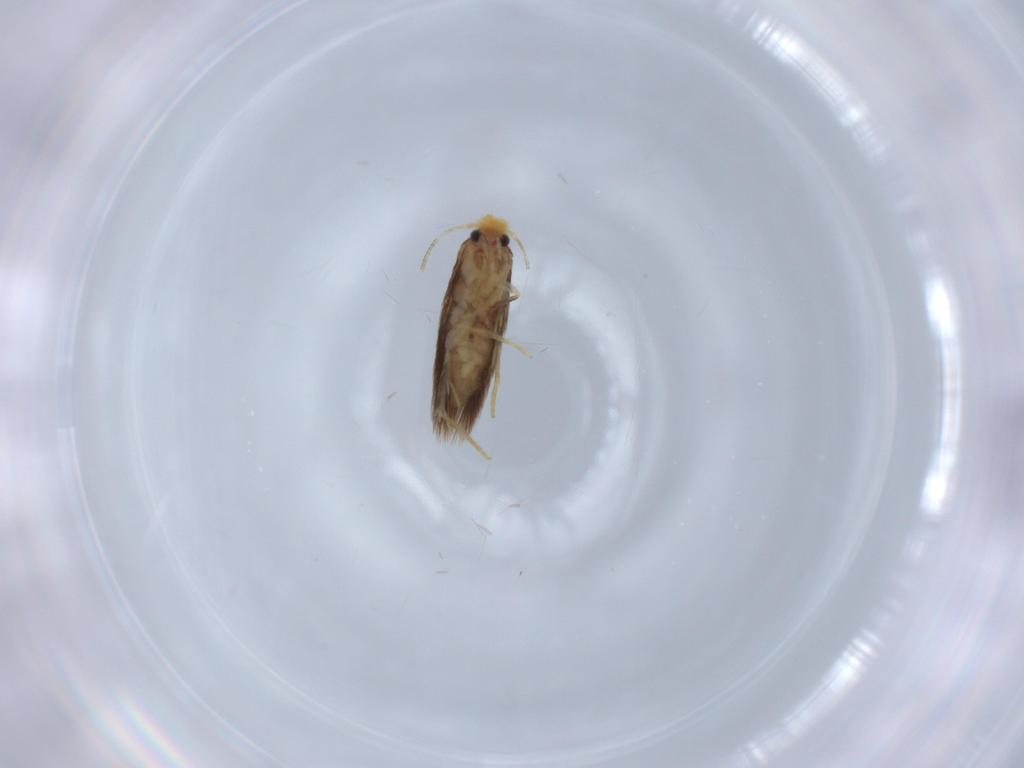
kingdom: Animalia
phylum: Arthropoda
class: Insecta
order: Lepidoptera
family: Nepticulidae
